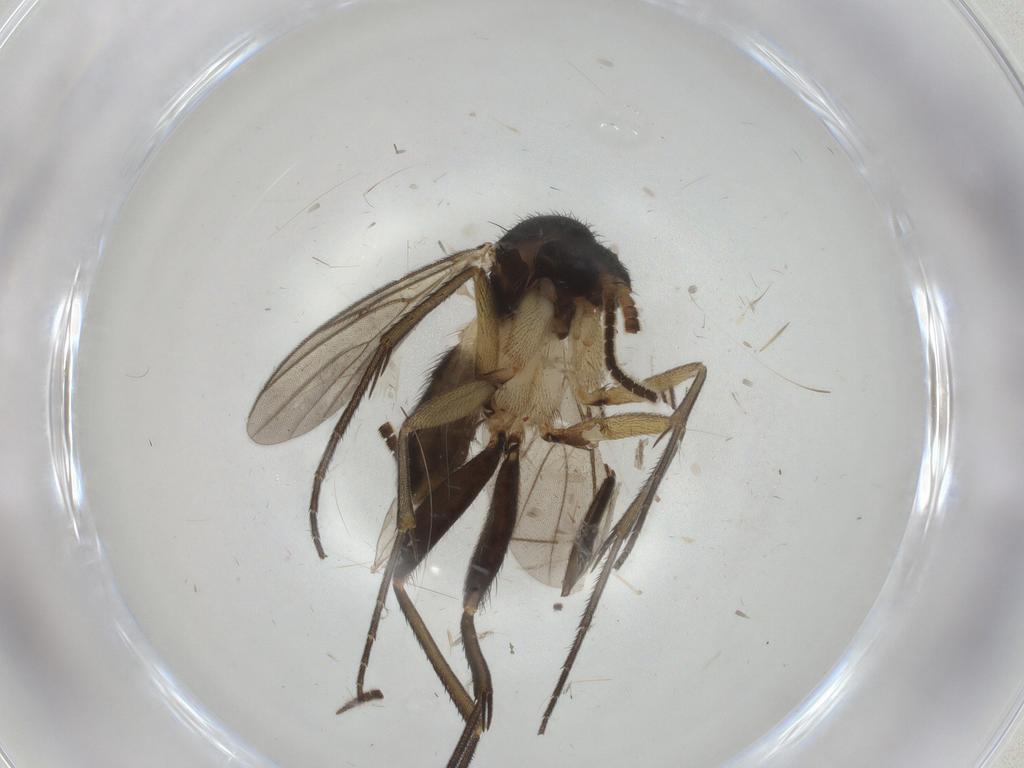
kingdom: Animalia
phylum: Arthropoda
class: Insecta
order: Diptera
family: Mycetophilidae
